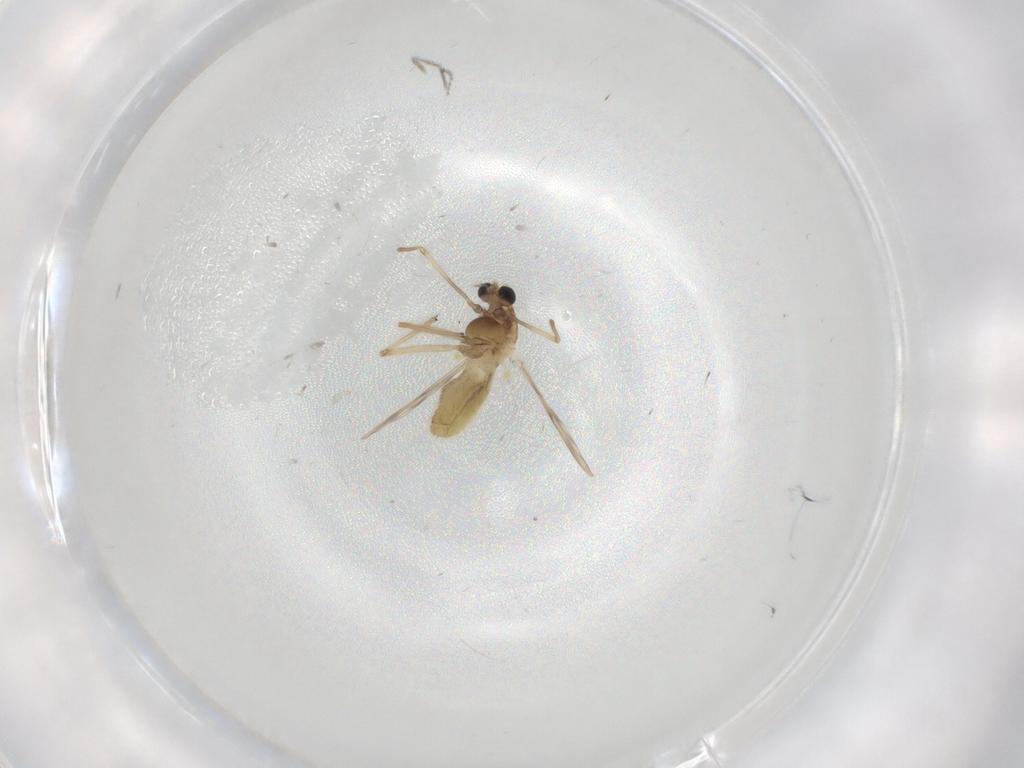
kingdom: Animalia
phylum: Arthropoda
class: Insecta
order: Diptera
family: Chironomidae
